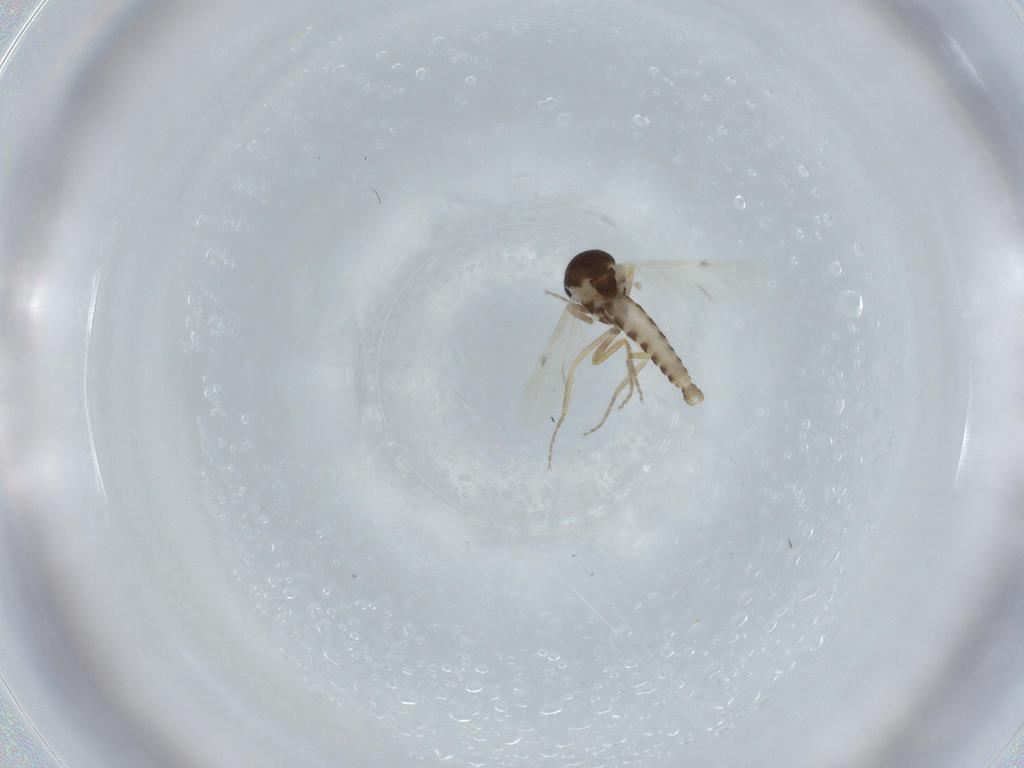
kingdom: Animalia
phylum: Arthropoda
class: Insecta
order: Diptera
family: Ceratopogonidae
